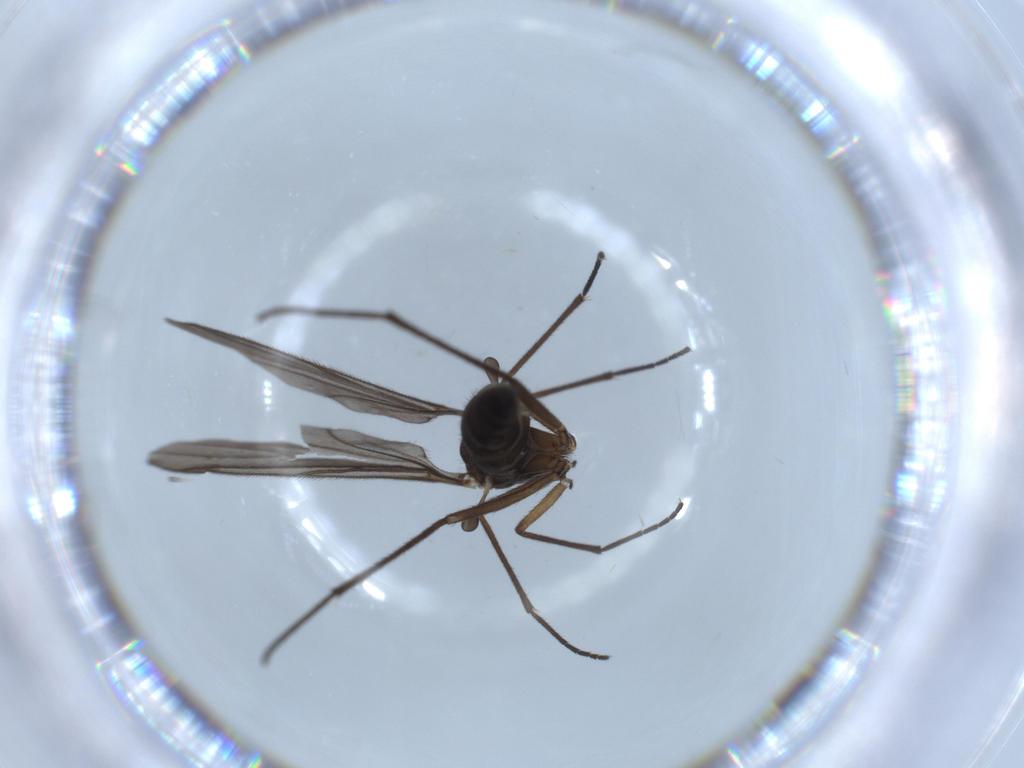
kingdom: Animalia
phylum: Arthropoda
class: Insecta
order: Diptera
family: Sciaridae
